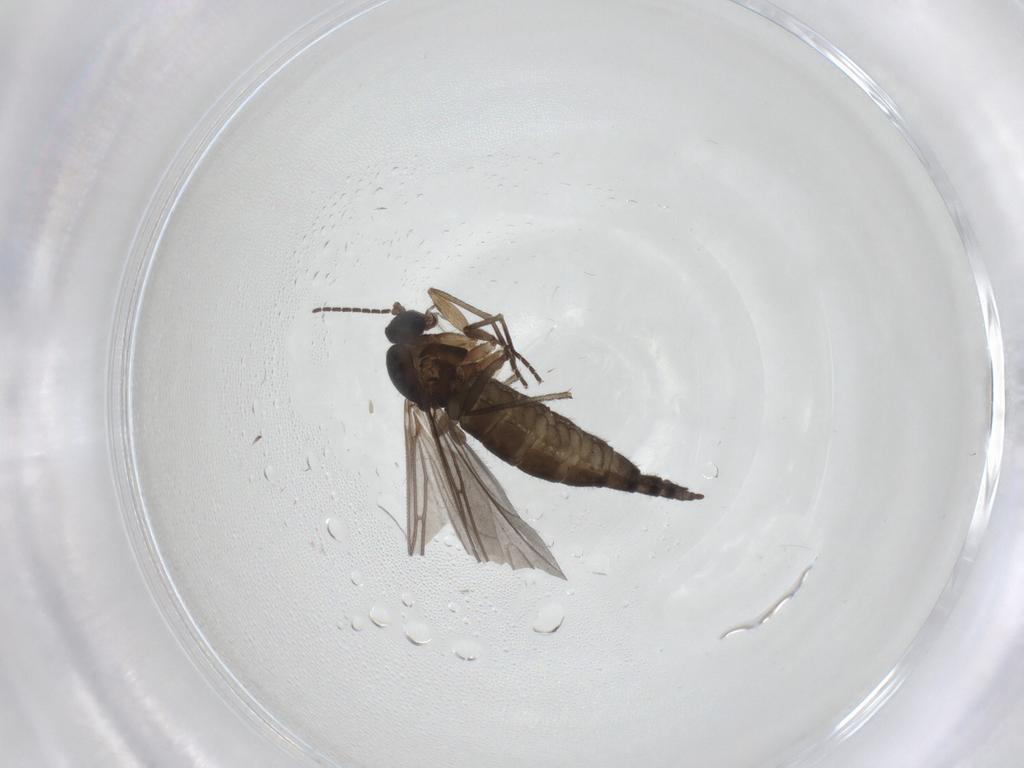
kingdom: Animalia
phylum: Arthropoda
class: Insecta
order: Diptera
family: Sciaridae
